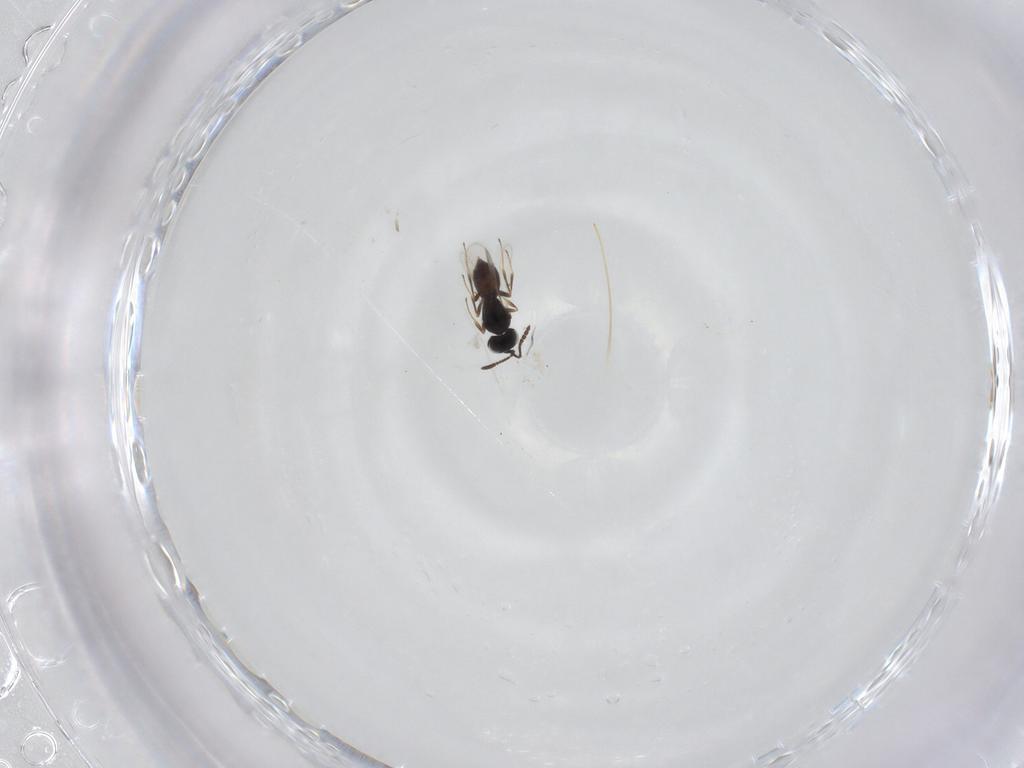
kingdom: Animalia
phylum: Arthropoda
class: Insecta
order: Hymenoptera
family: Scelionidae
